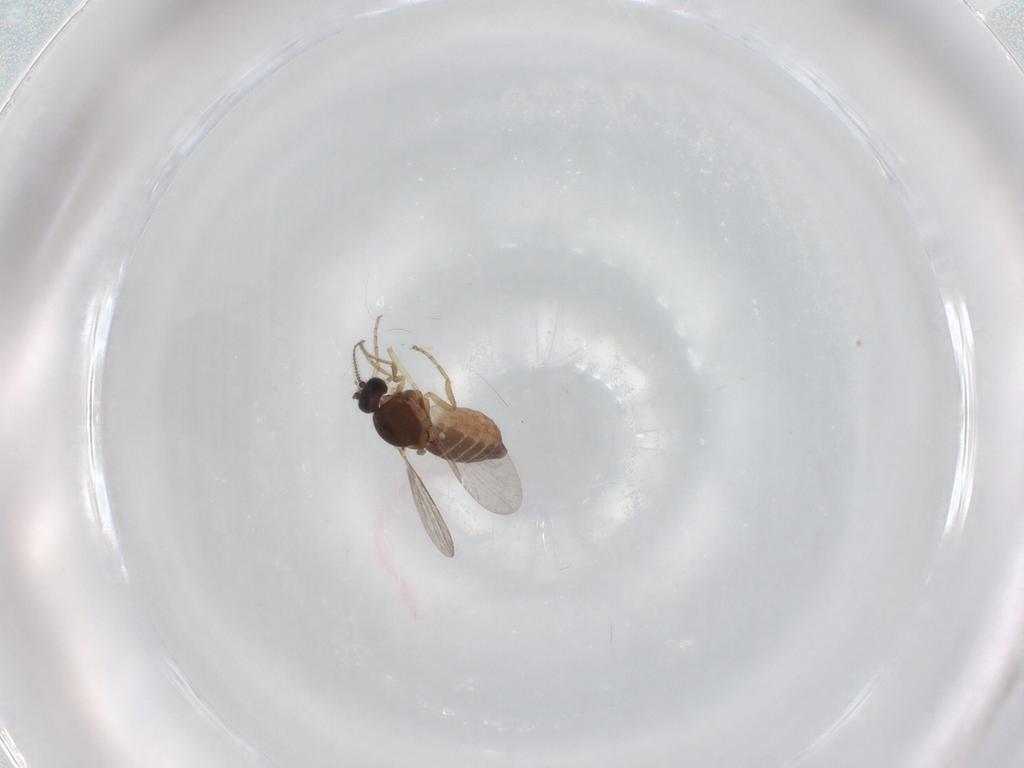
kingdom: Animalia
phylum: Arthropoda
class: Insecta
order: Diptera
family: Ceratopogonidae
